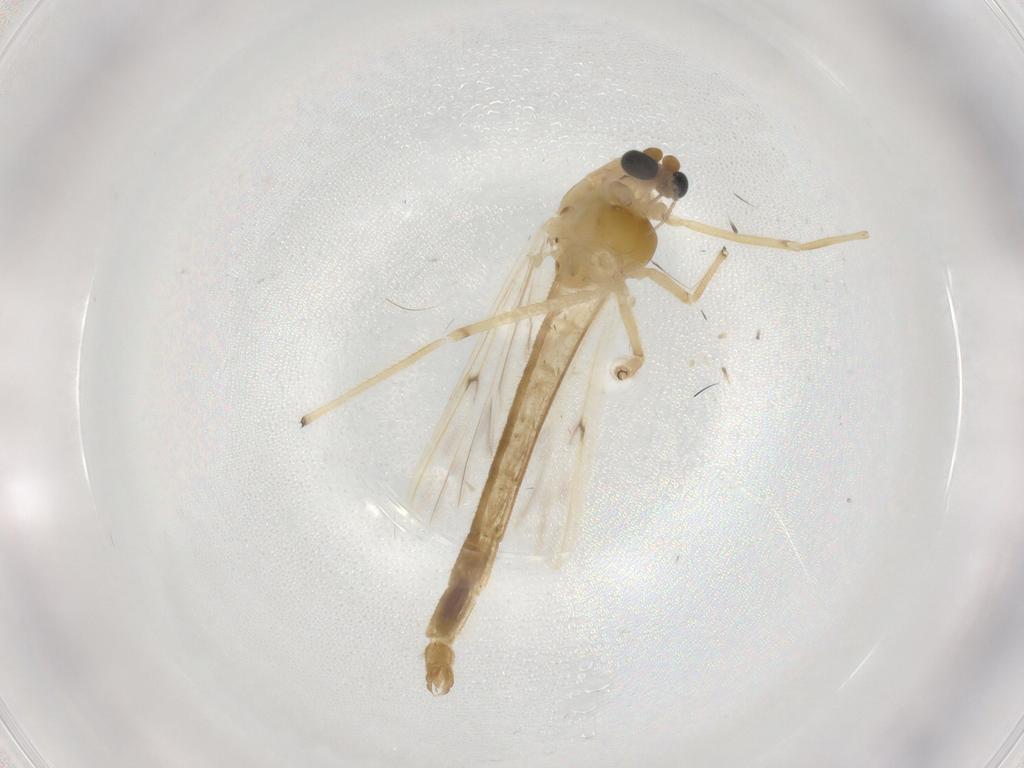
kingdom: Animalia
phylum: Arthropoda
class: Insecta
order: Diptera
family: Chironomidae
